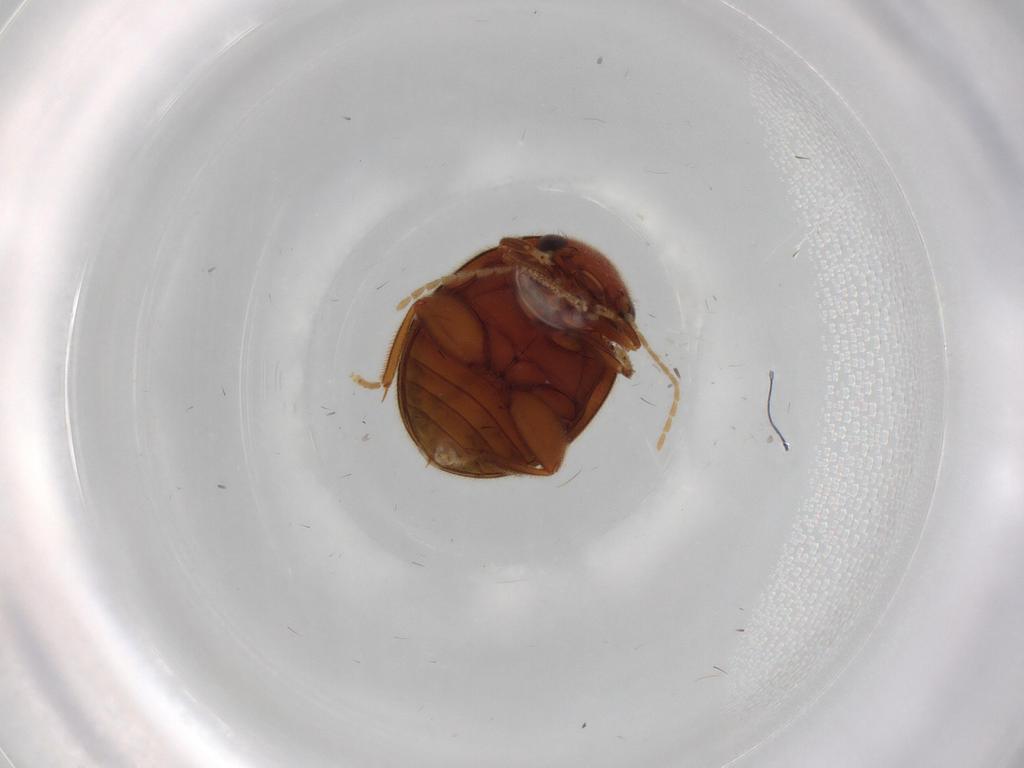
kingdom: Animalia
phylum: Arthropoda
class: Insecta
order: Coleoptera
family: Scirtidae
